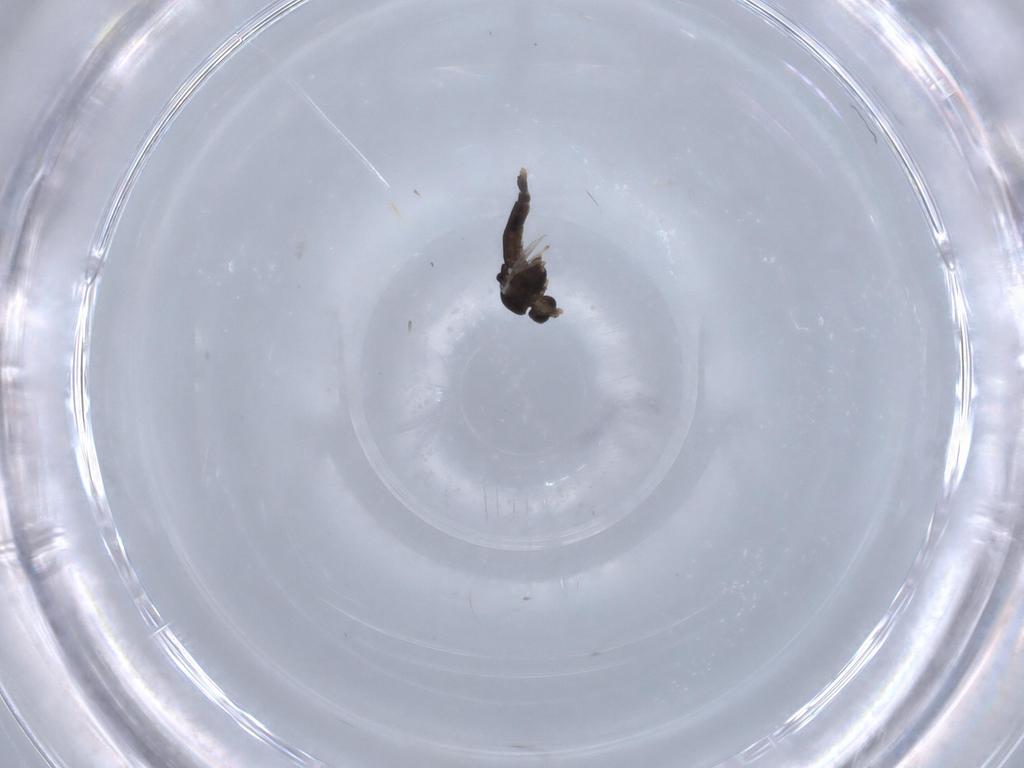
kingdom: Animalia
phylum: Arthropoda
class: Insecta
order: Diptera
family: Chironomidae
